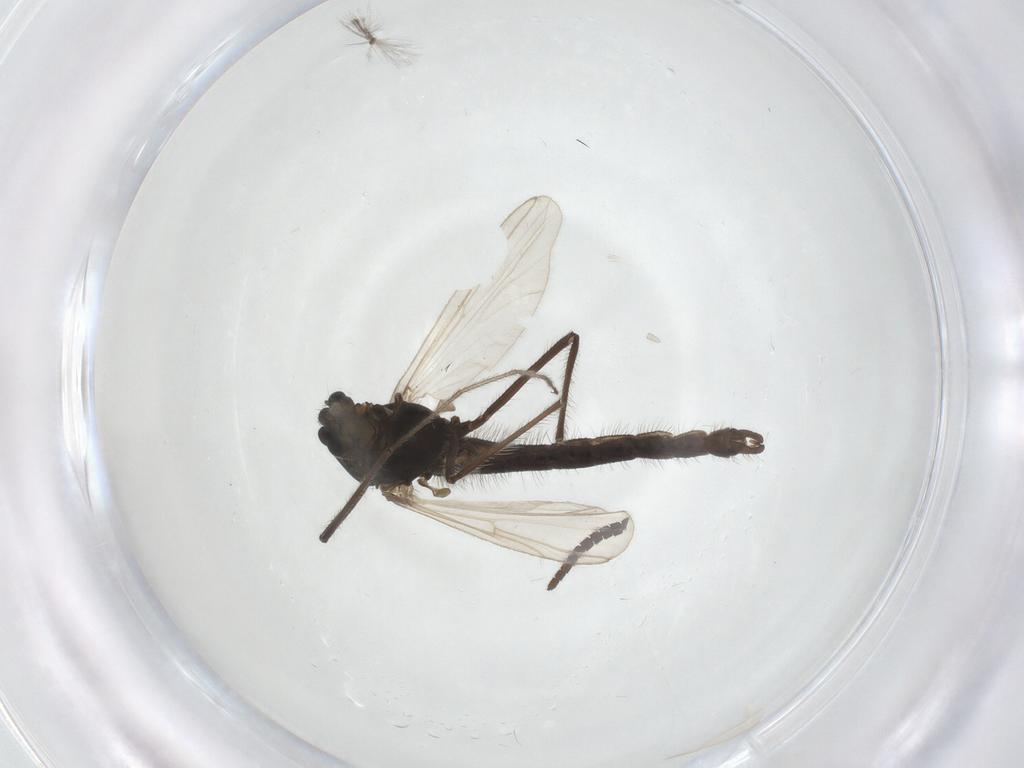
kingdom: Animalia
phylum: Arthropoda
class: Insecta
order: Diptera
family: Chironomidae
